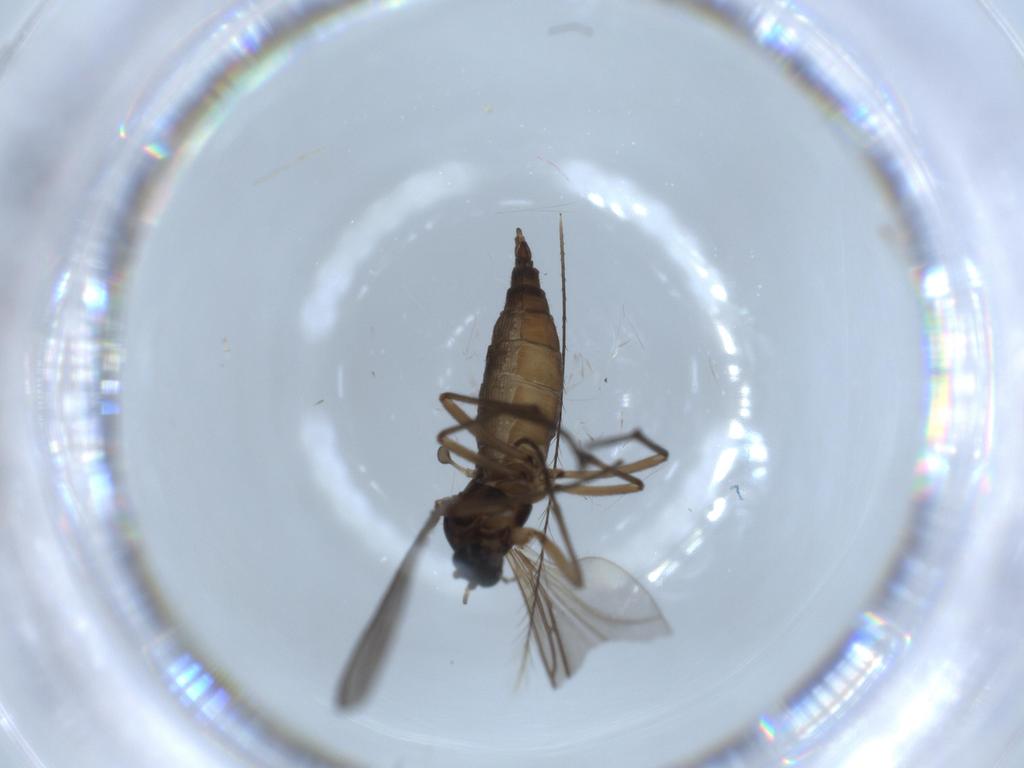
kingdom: Animalia
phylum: Arthropoda
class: Insecta
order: Diptera
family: Sciaridae
